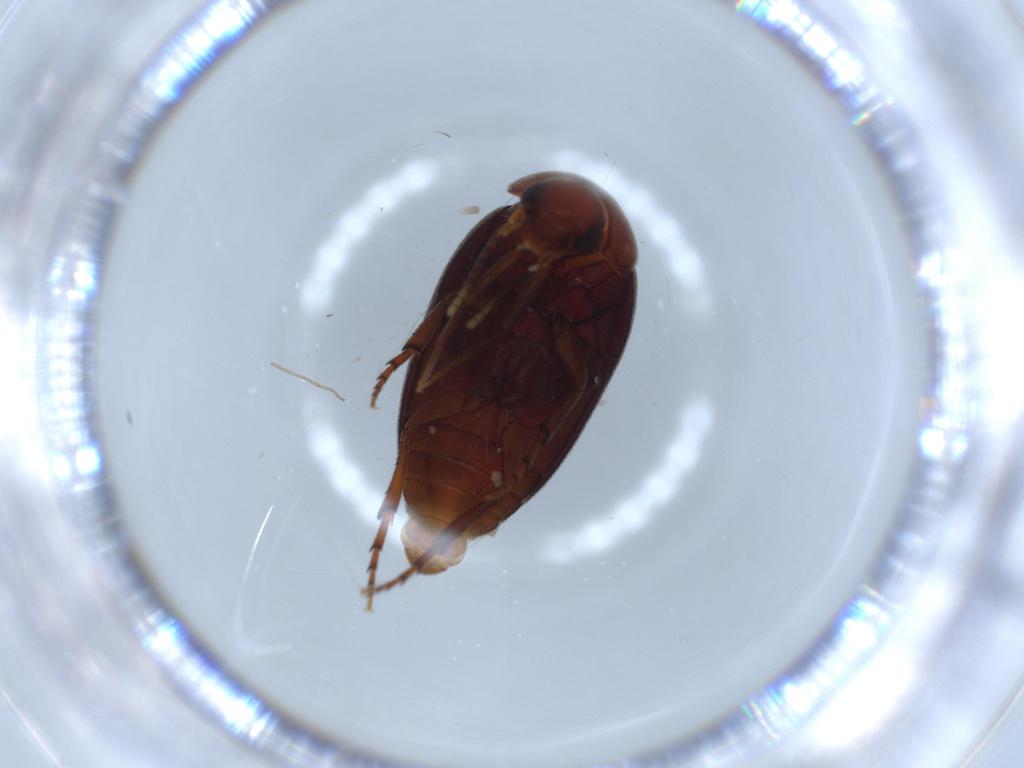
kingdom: Animalia
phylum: Arthropoda
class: Insecta
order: Coleoptera
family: Eucinetidae
